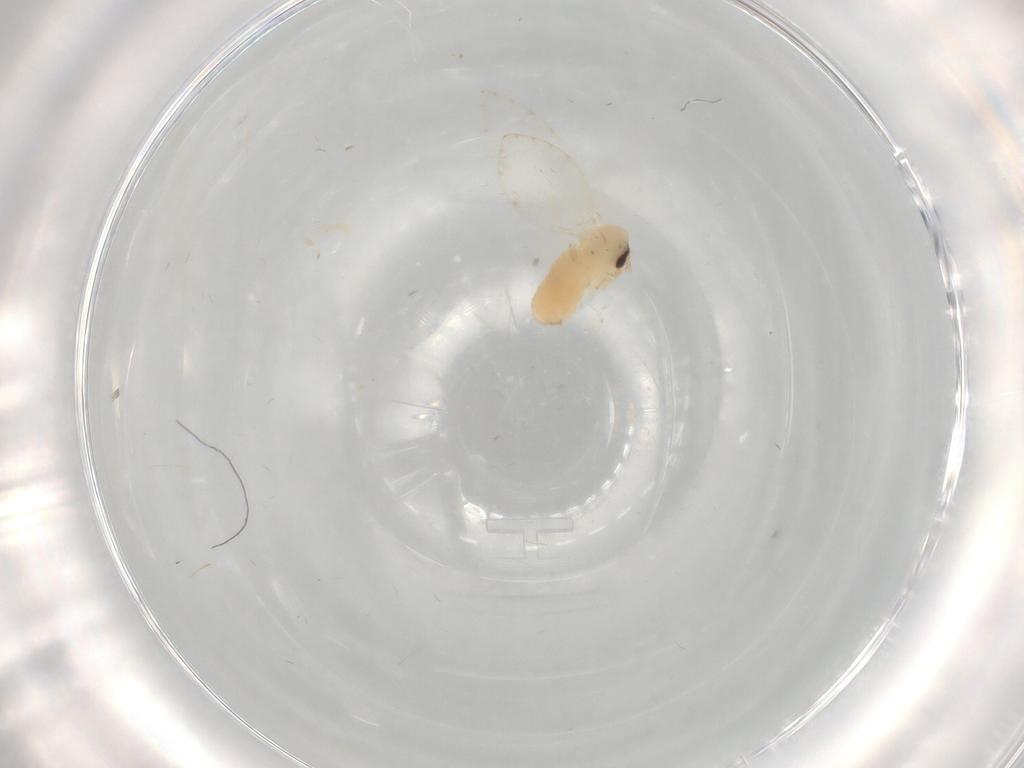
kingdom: Animalia
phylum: Arthropoda
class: Insecta
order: Diptera
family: Psychodidae
